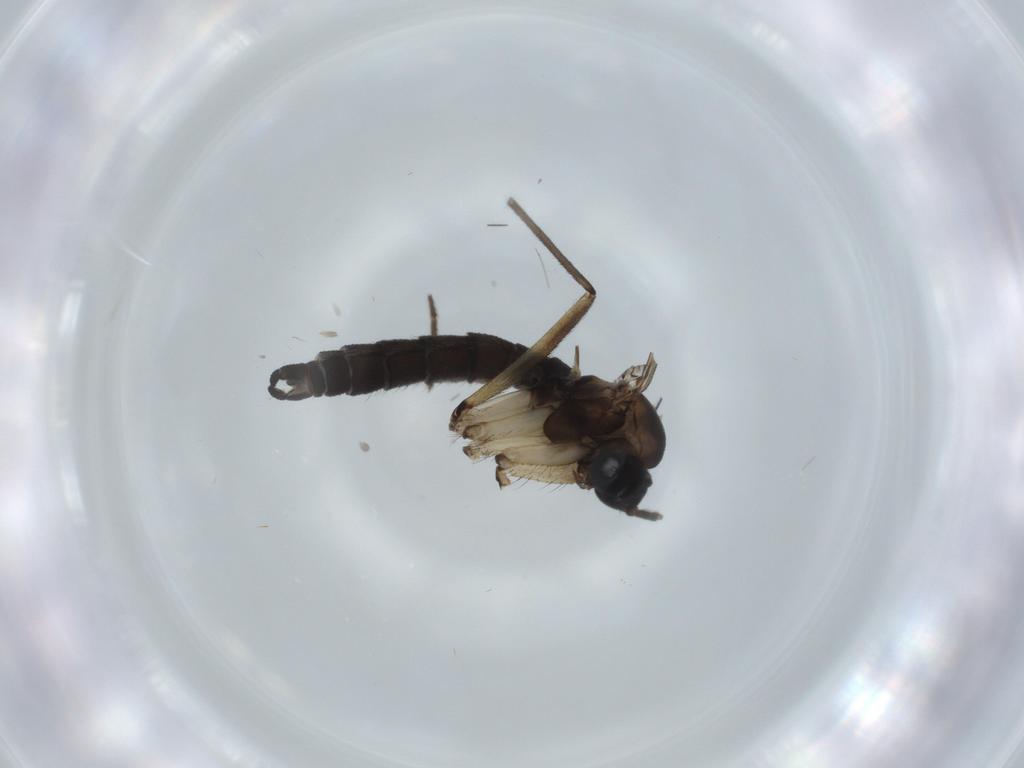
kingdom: Animalia
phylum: Arthropoda
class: Insecta
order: Diptera
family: Sciaridae
